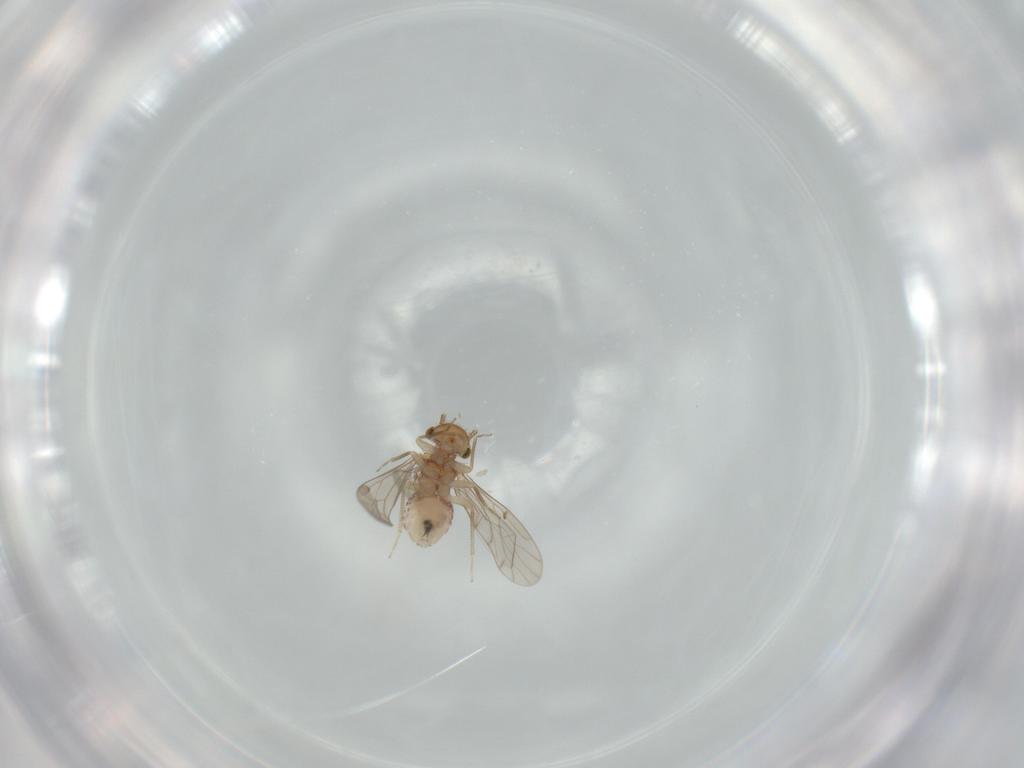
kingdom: Animalia
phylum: Arthropoda
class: Insecta
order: Psocodea
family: Ectopsocidae
